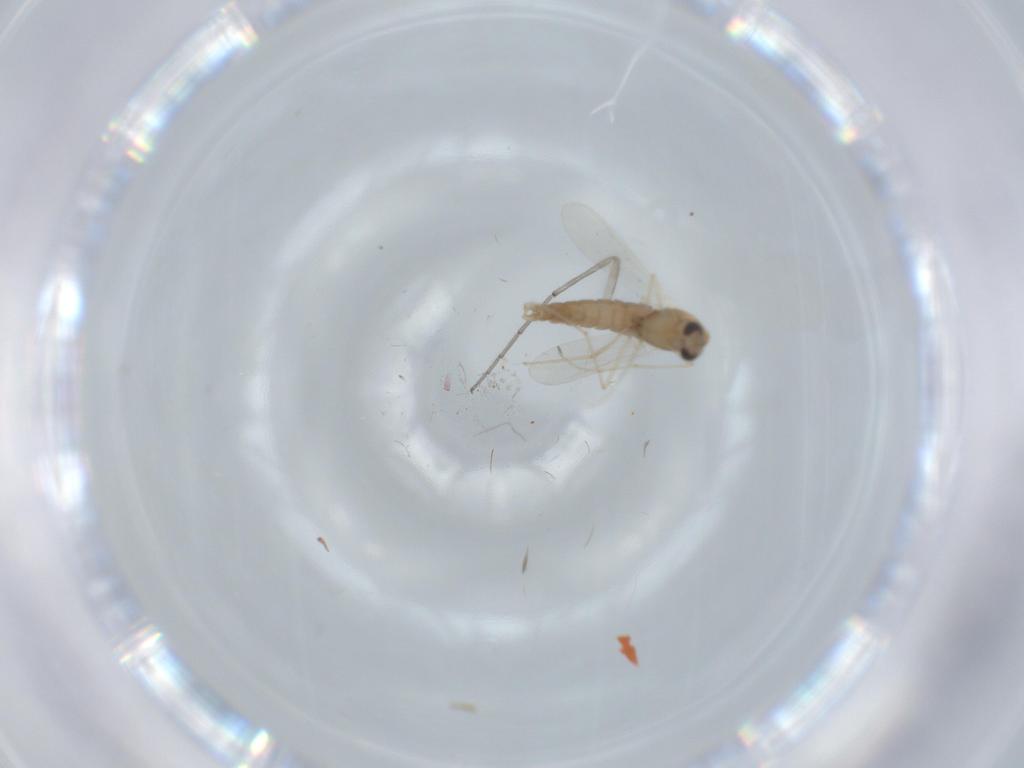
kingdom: Animalia
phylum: Arthropoda
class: Insecta
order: Diptera
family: Chironomidae
